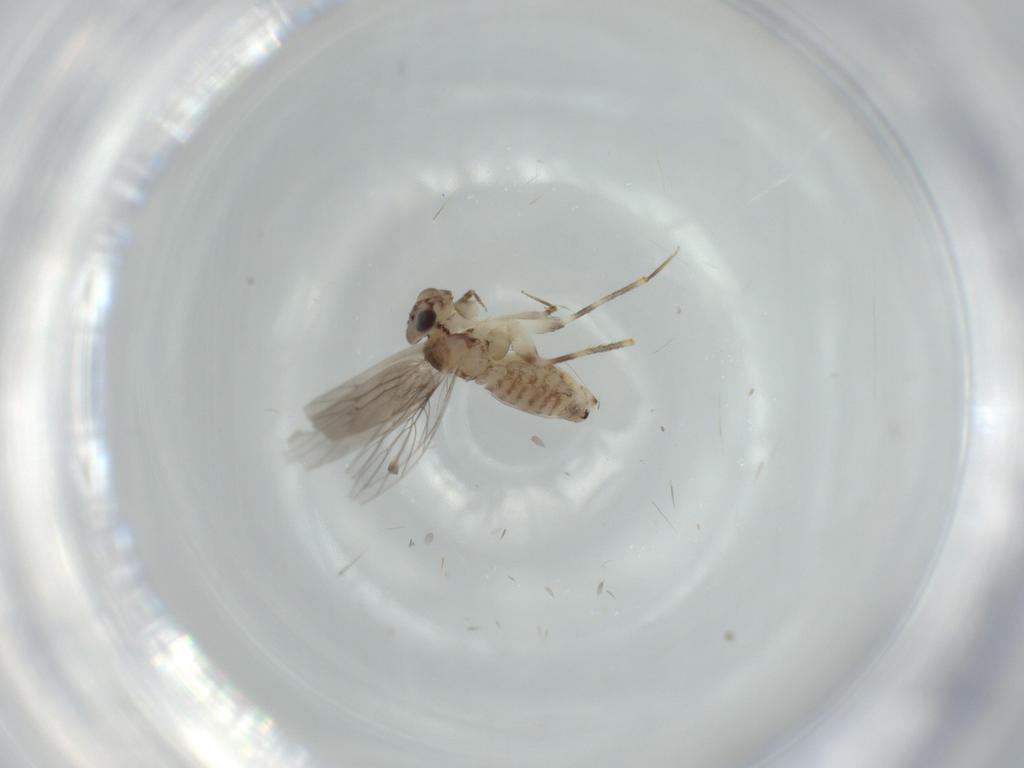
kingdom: Animalia
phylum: Arthropoda
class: Insecta
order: Psocodea
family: Lepidopsocidae
